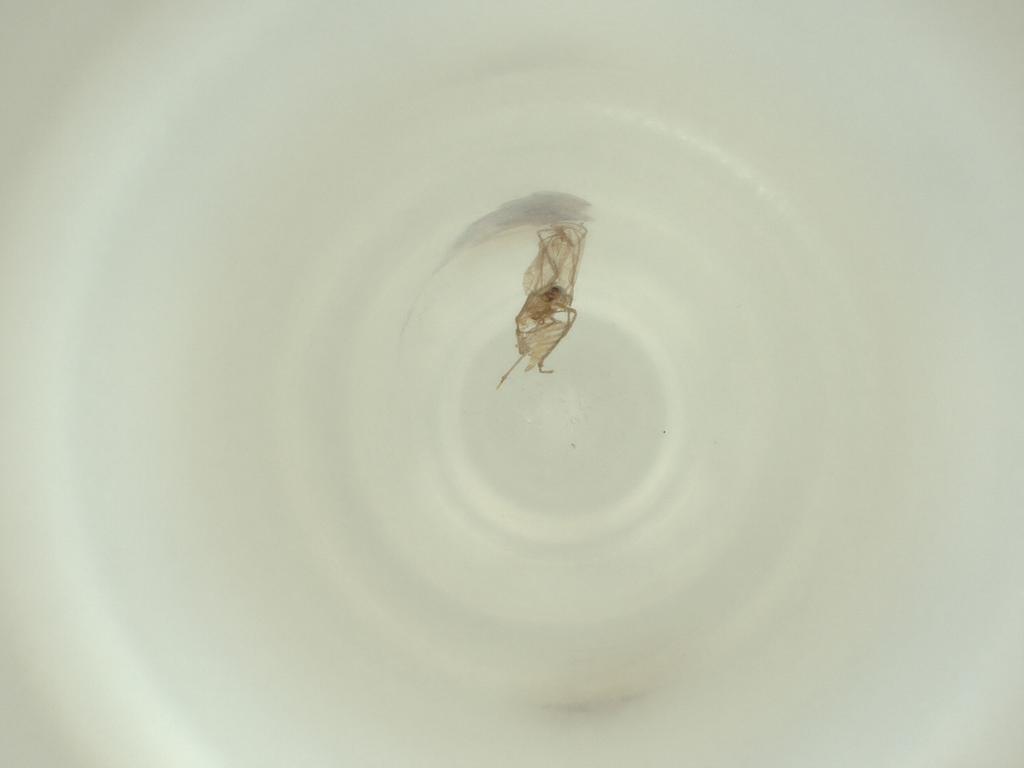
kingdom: Animalia
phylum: Arthropoda
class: Insecta
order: Diptera
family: Cecidomyiidae
